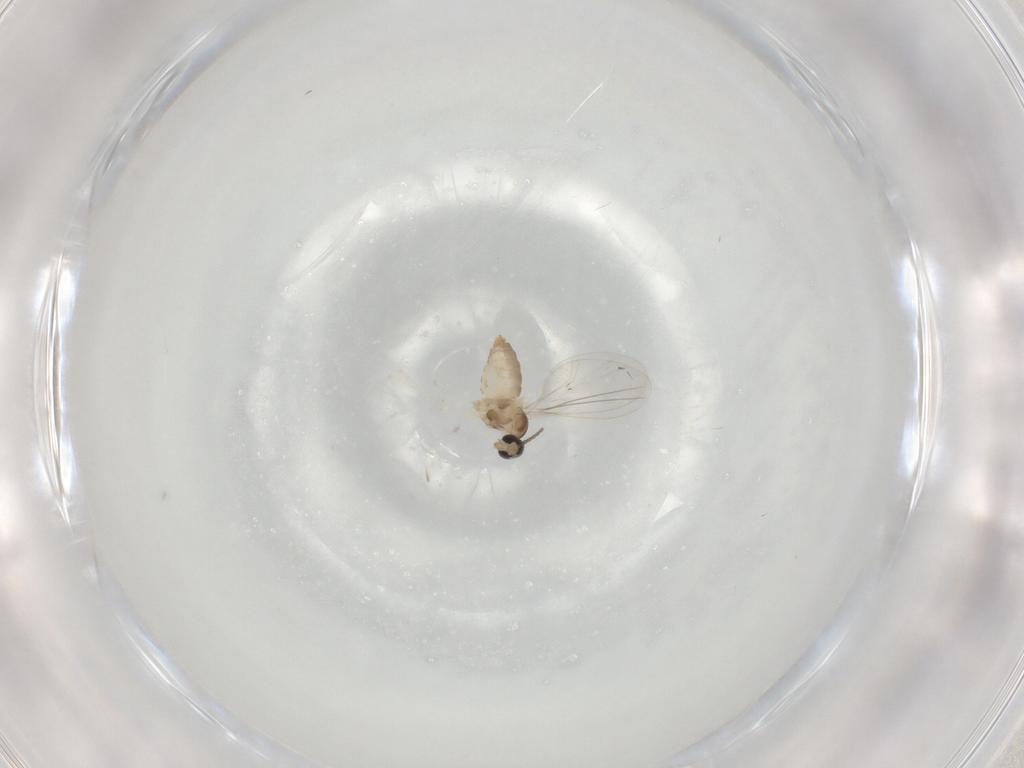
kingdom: Animalia
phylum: Arthropoda
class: Insecta
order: Diptera
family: Cecidomyiidae
